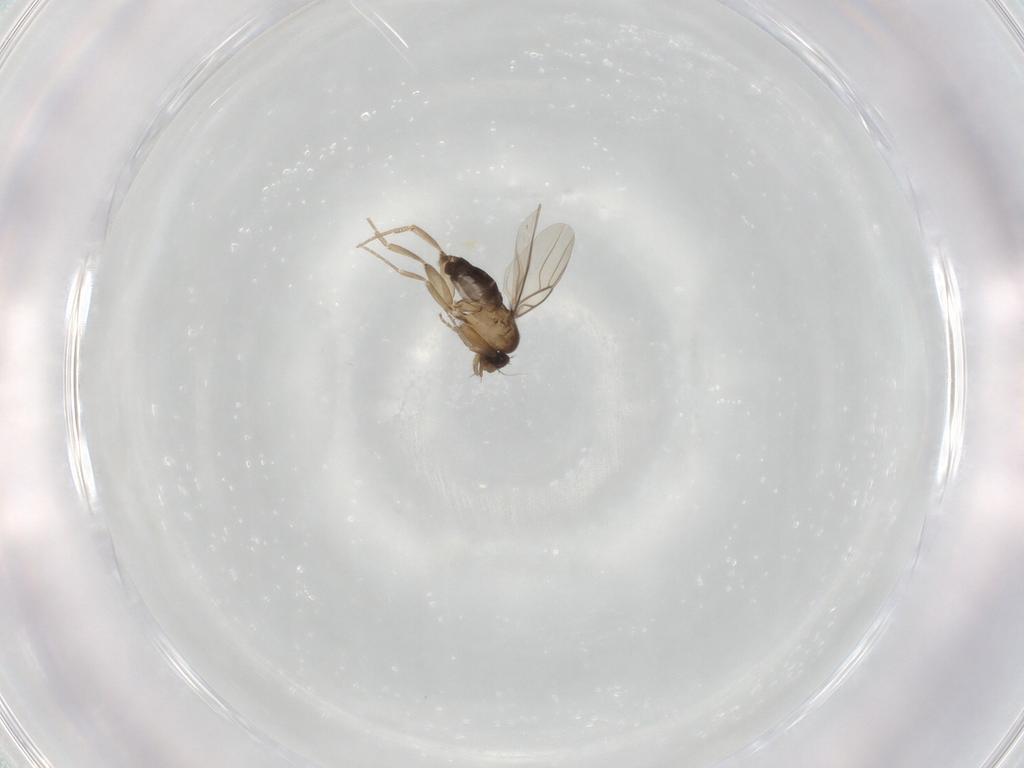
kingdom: Animalia
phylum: Arthropoda
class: Insecta
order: Diptera
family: Phoridae
